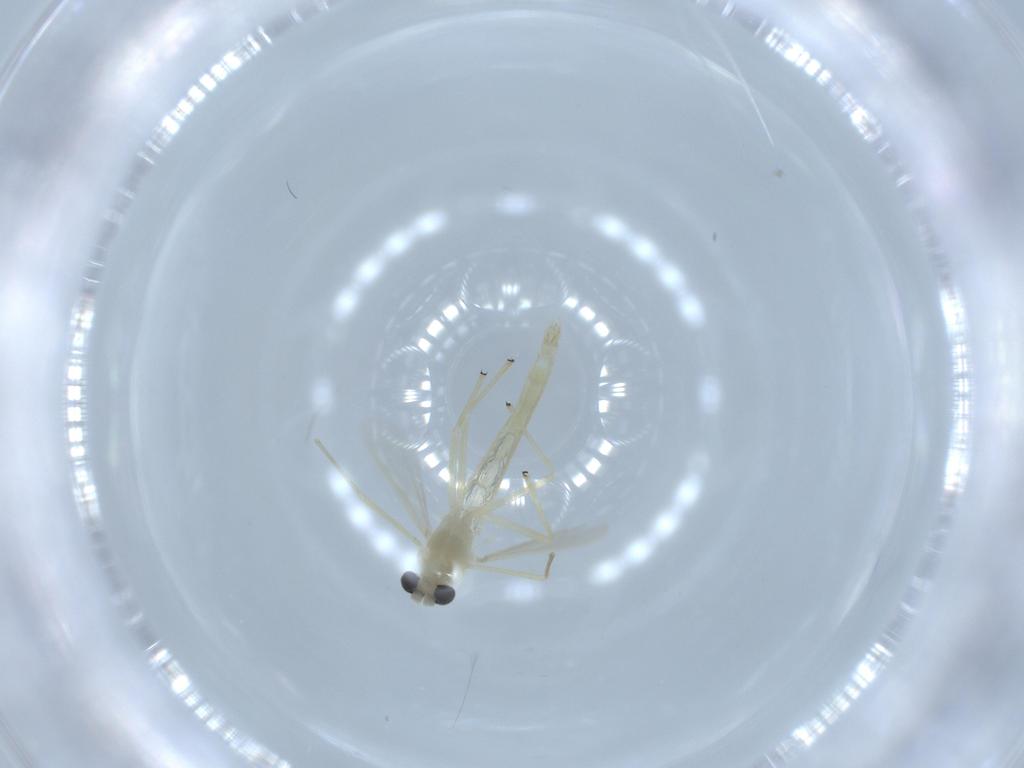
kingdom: Animalia
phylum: Arthropoda
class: Insecta
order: Diptera
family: Chironomidae
